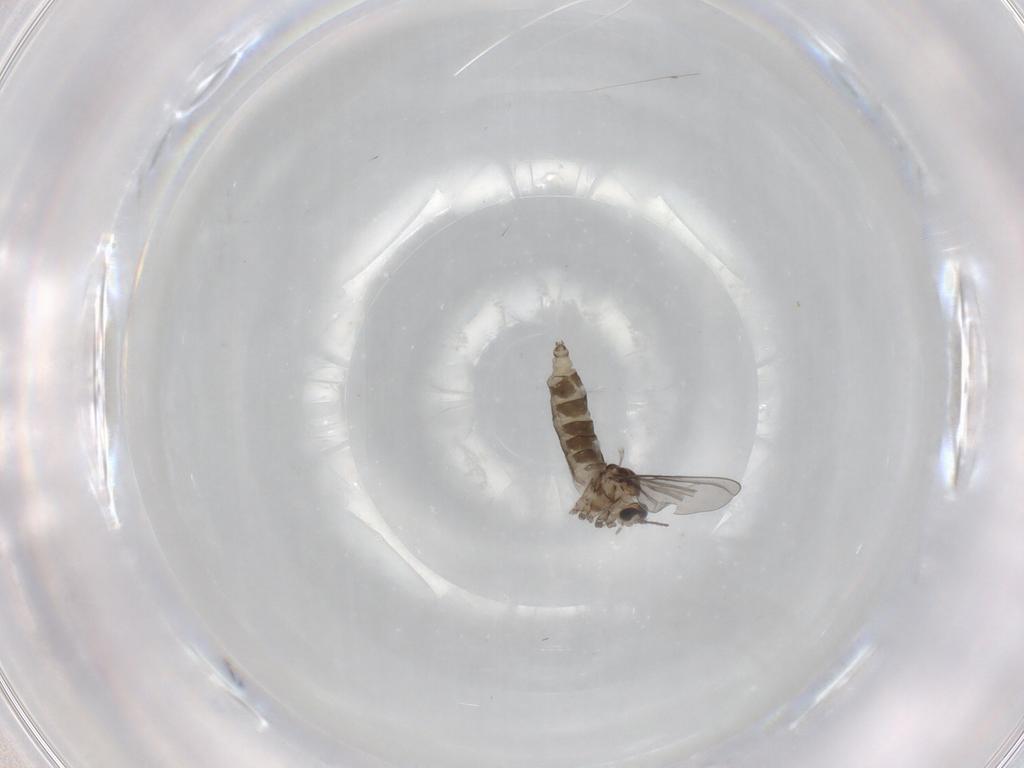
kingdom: Animalia
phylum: Arthropoda
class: Insecta
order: Diptera
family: Cecidomyiidae
